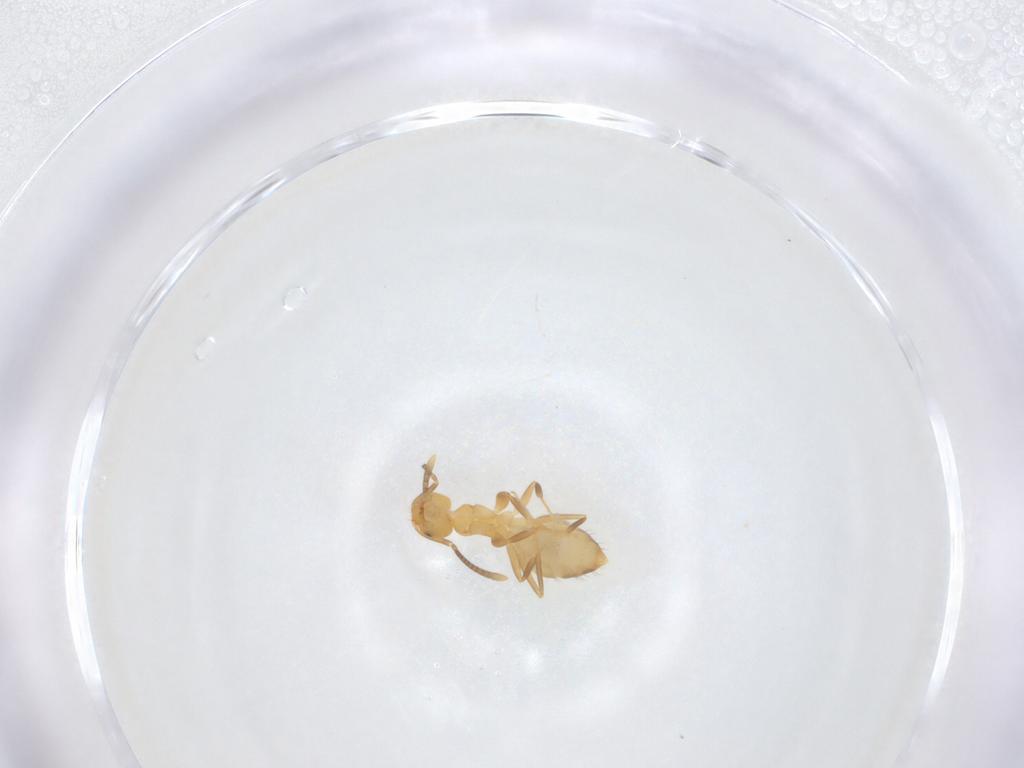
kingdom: Animalia
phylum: Arthropoda
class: Insecta
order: Hymenoptera
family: Formicidae
